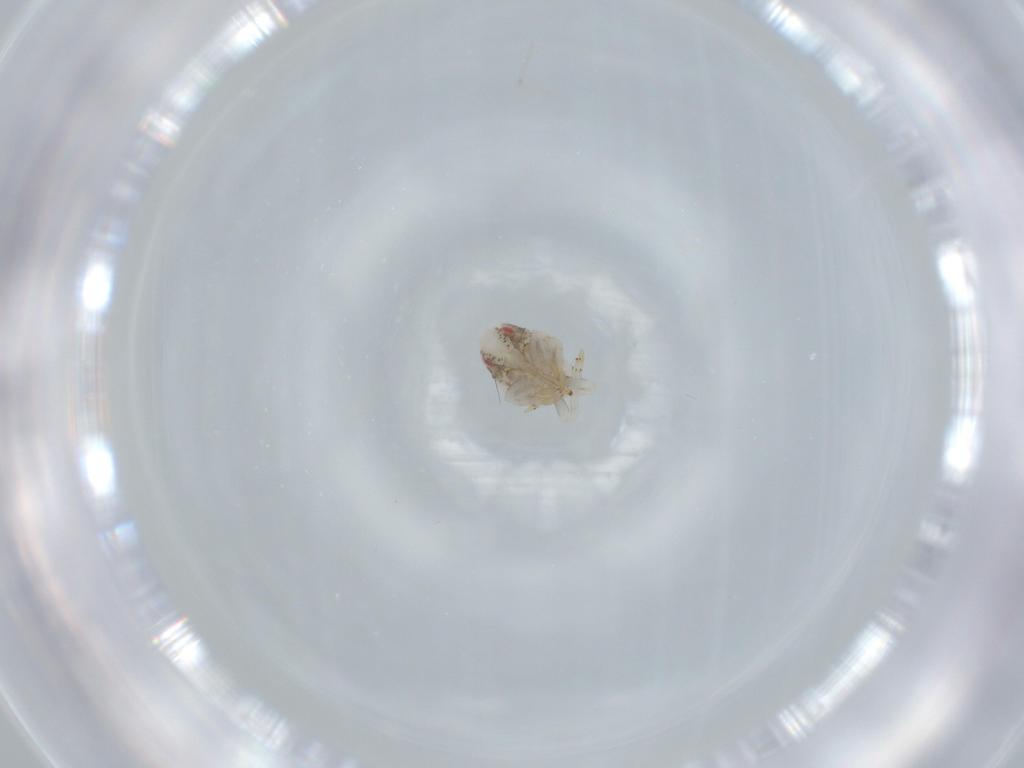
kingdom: Animalia
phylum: Arthropoda
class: Insecta
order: Hemiptera
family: Acanaloniidae
